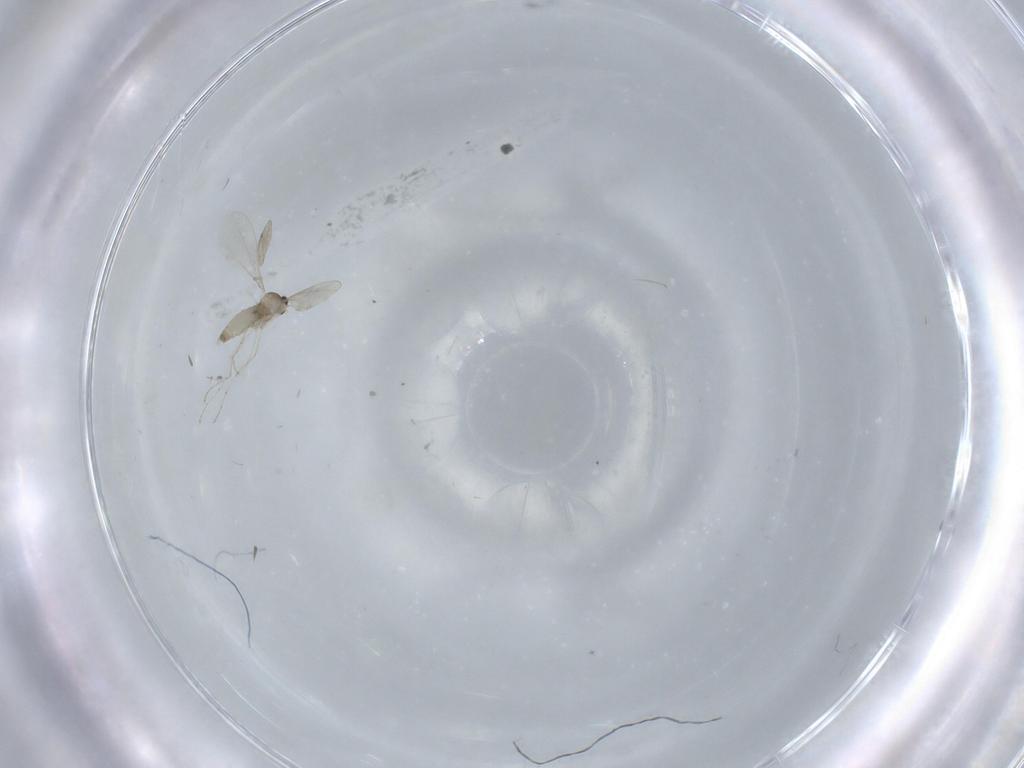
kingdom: Animalia
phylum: Arthropoda
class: Insecta
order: Diptera
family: Cecidomyiidae
